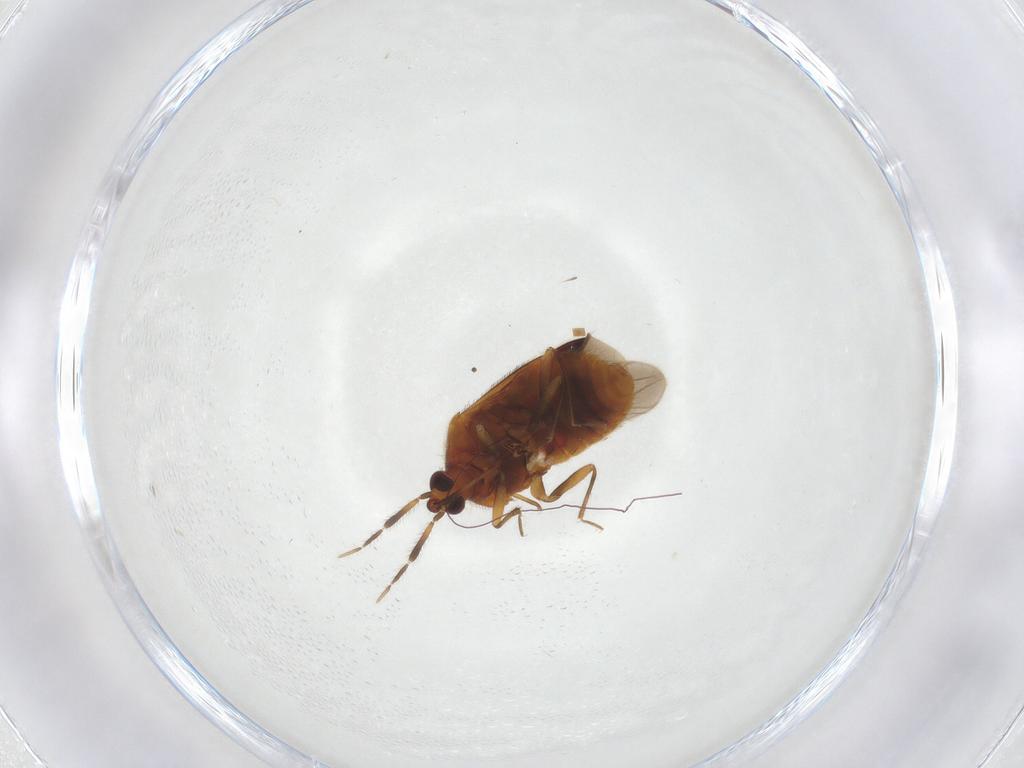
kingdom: Animalia
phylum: Arthropoda
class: Insecta
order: Hemiptera
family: Anthocoridae
